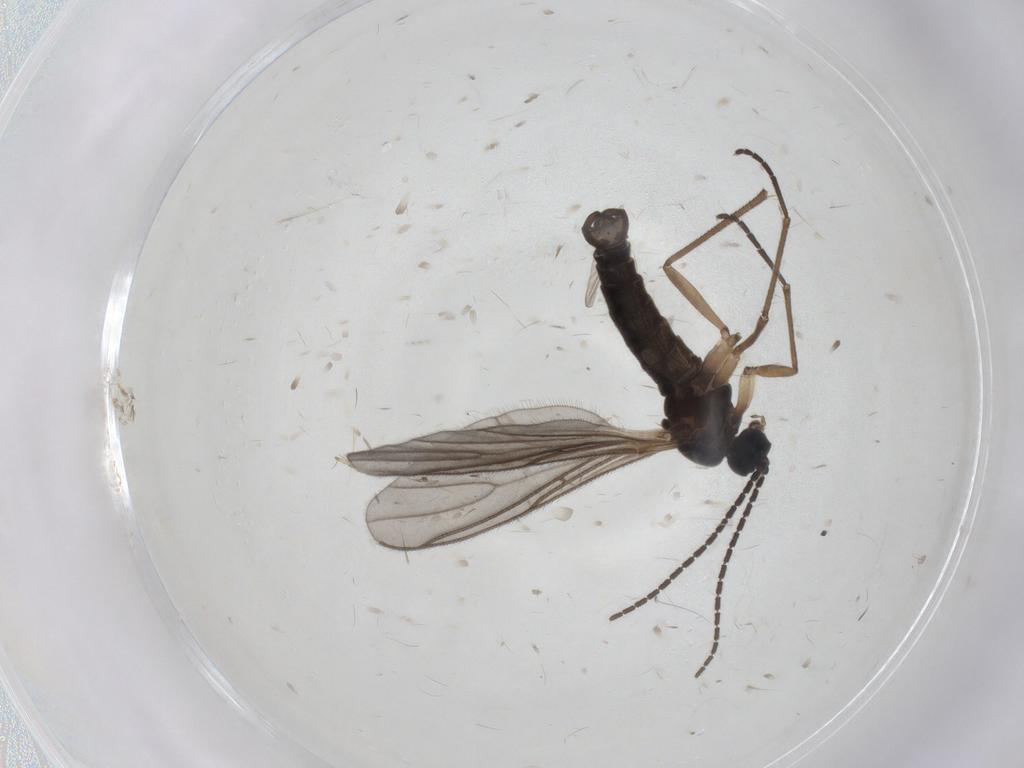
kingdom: Animalia
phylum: Arthropoda
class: Insecta
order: Diptera
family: Sciaridae
